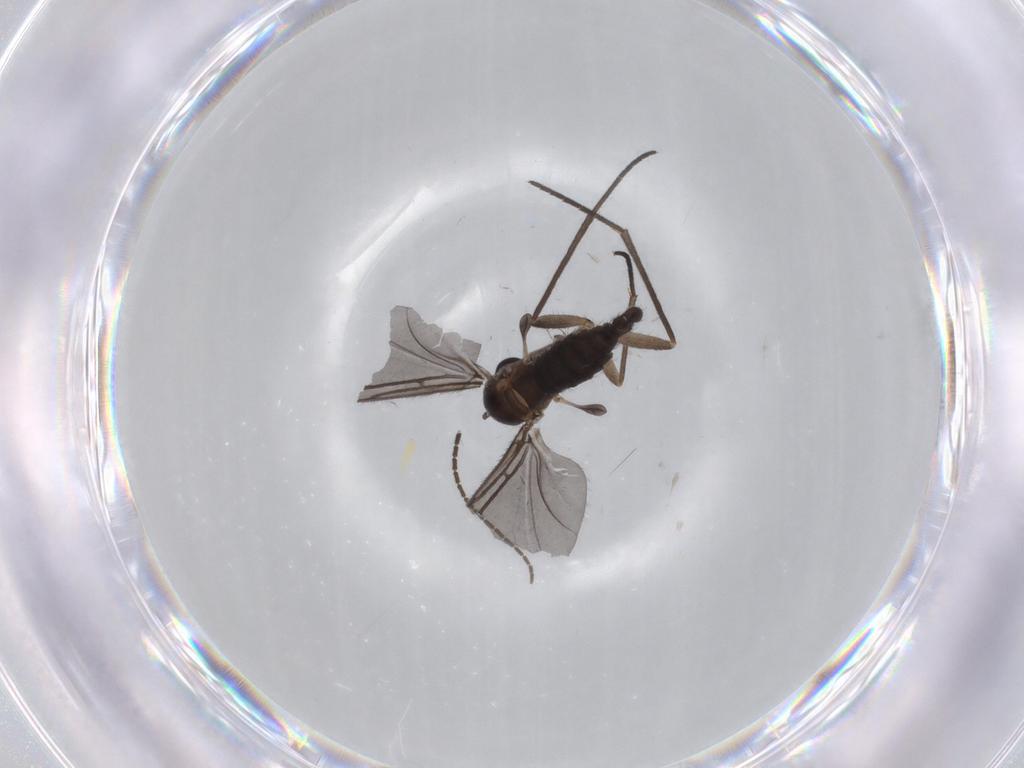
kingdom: Animalia
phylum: Arthropoda
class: Insecta
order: Diptera
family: Sciaridae
